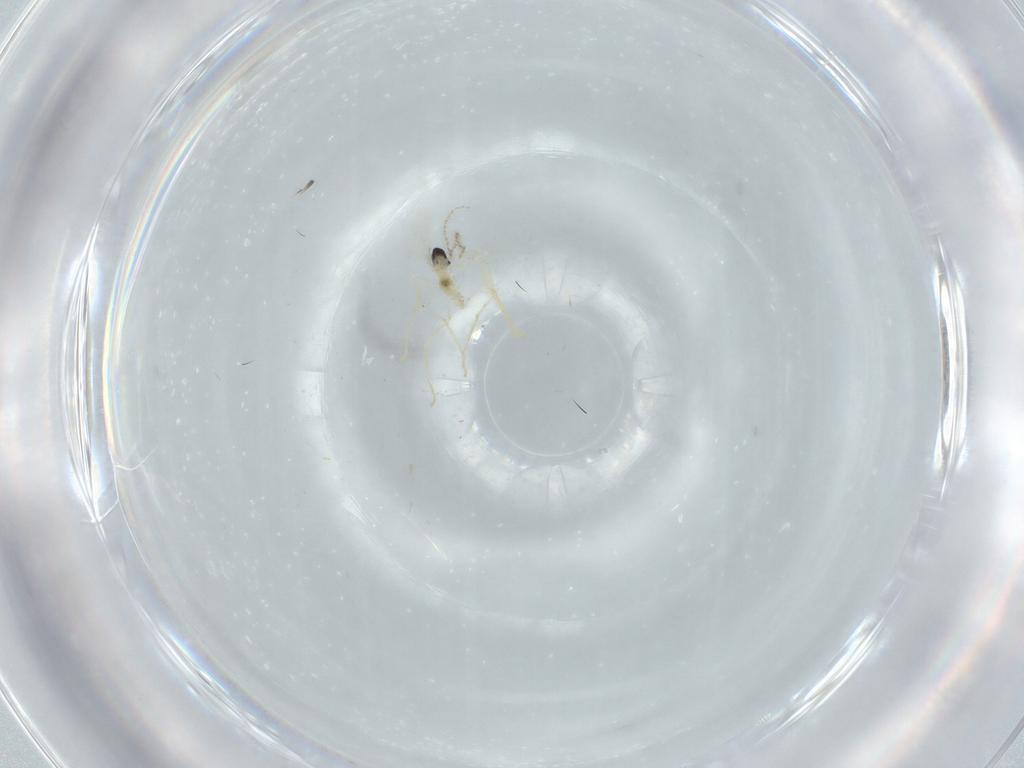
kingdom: Animalia
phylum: Arthropoda
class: Insecta
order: Diptera
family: Cecidomyiidae
